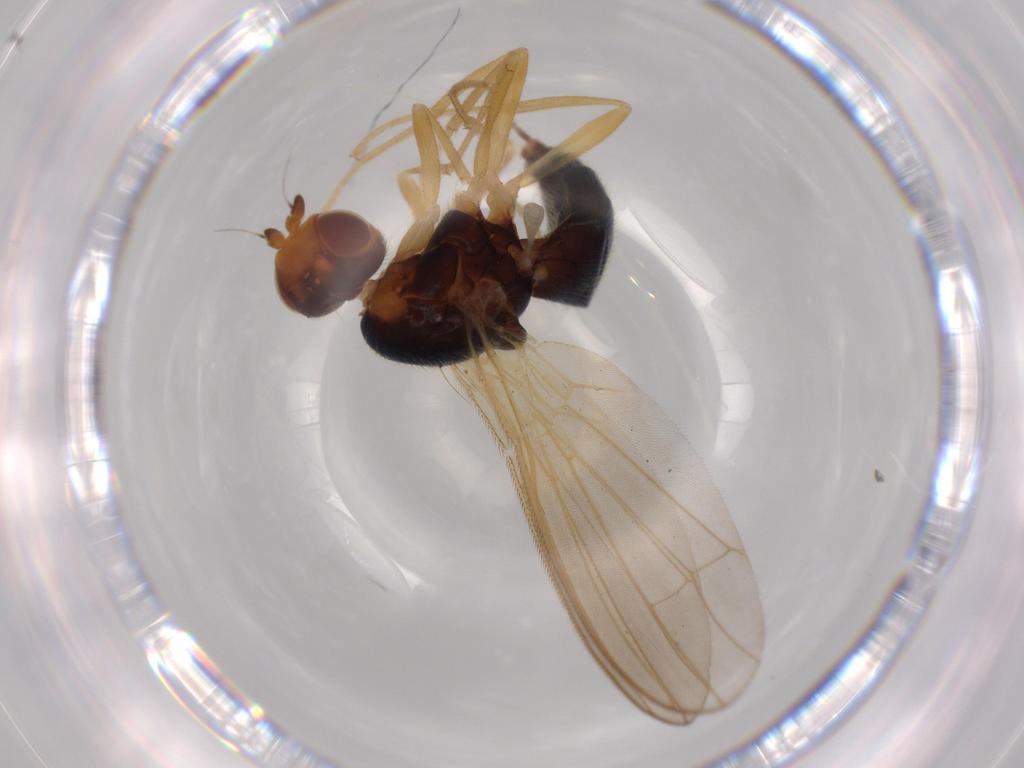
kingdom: Animalia
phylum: Arthropoda
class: Insecta
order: Diptera
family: Psilidae
